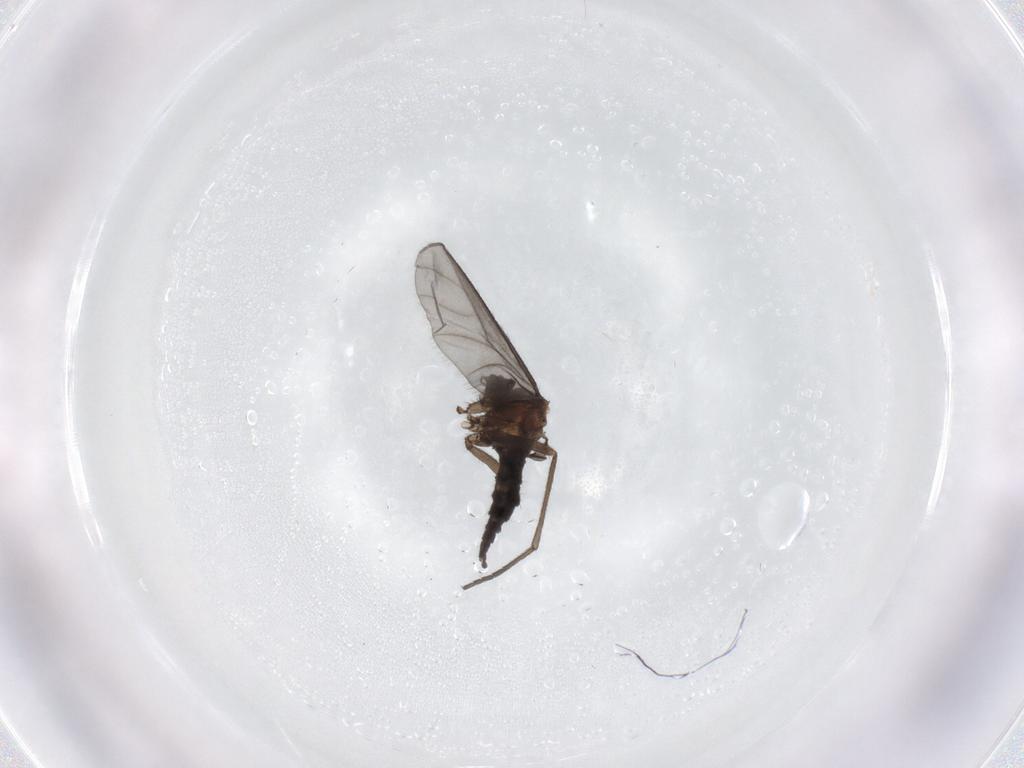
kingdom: Animalia
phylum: Arthropoda
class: Insecta
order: Diptera
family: Sciaridae
